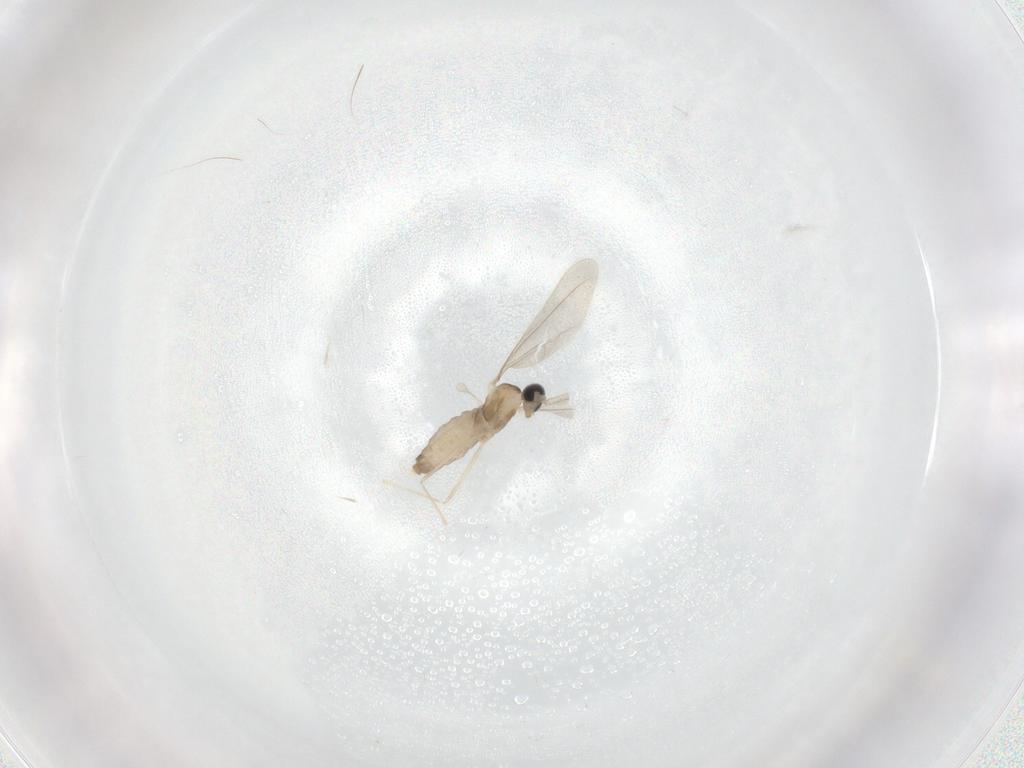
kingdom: Animalia
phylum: Arthropoda
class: Insecta
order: Diptera
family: Cecidomyiidae
